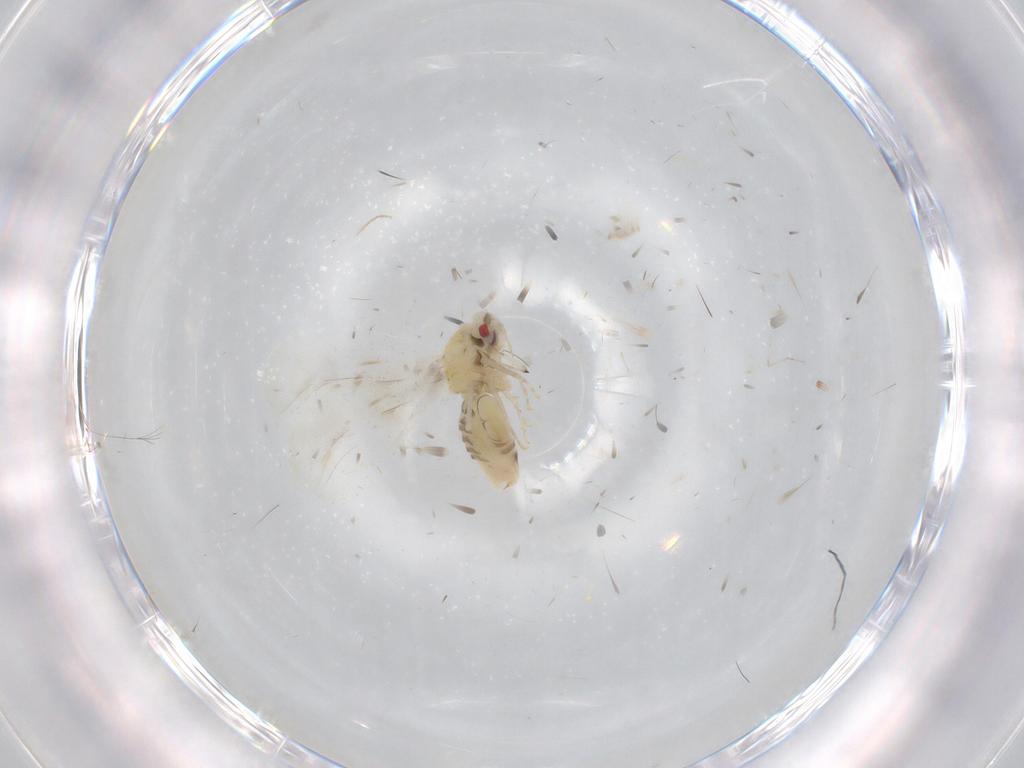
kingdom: Animalia
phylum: Arthropoda
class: Insecta
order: Hemiptera
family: Aleyrodidae
